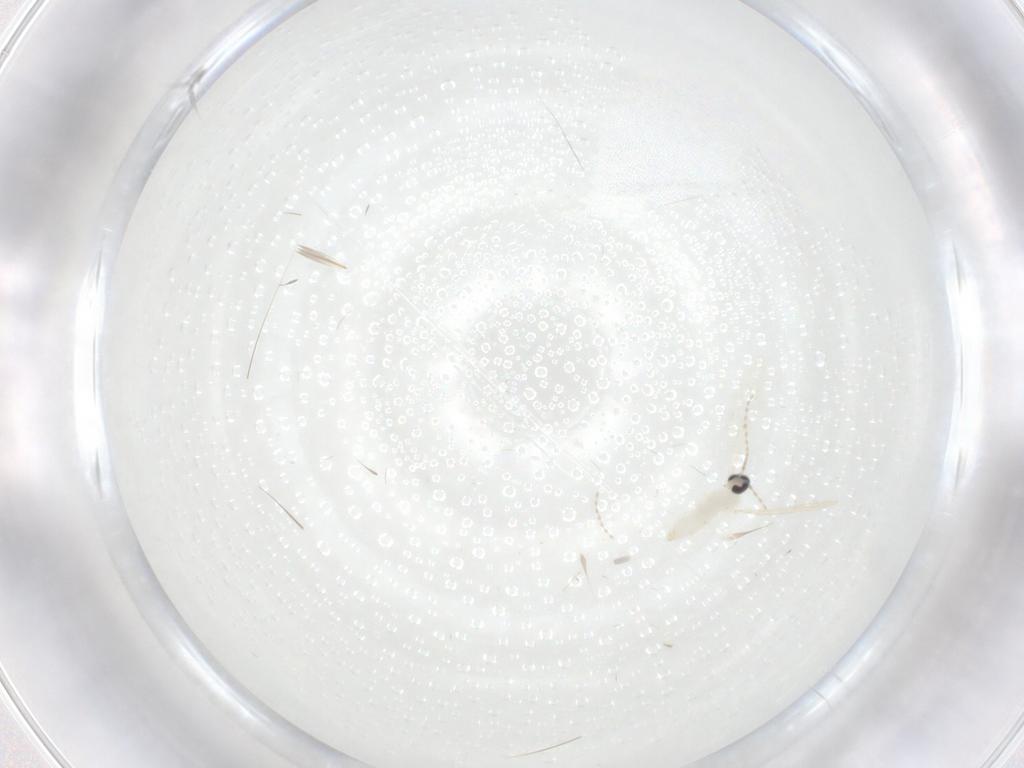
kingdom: Animalia
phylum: Arthropoda
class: Insecta
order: Diptera
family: Cecidomyiidae
